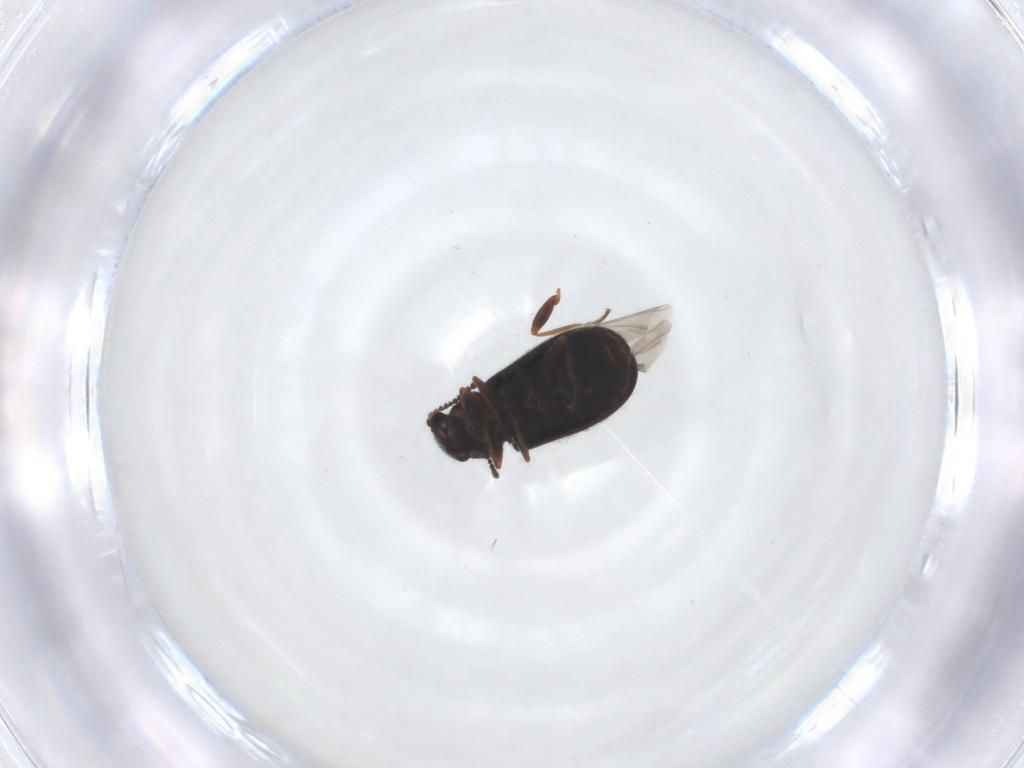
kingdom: Animalia
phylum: Arthropoda
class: Insecta
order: Coleoptera
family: Melyridae
